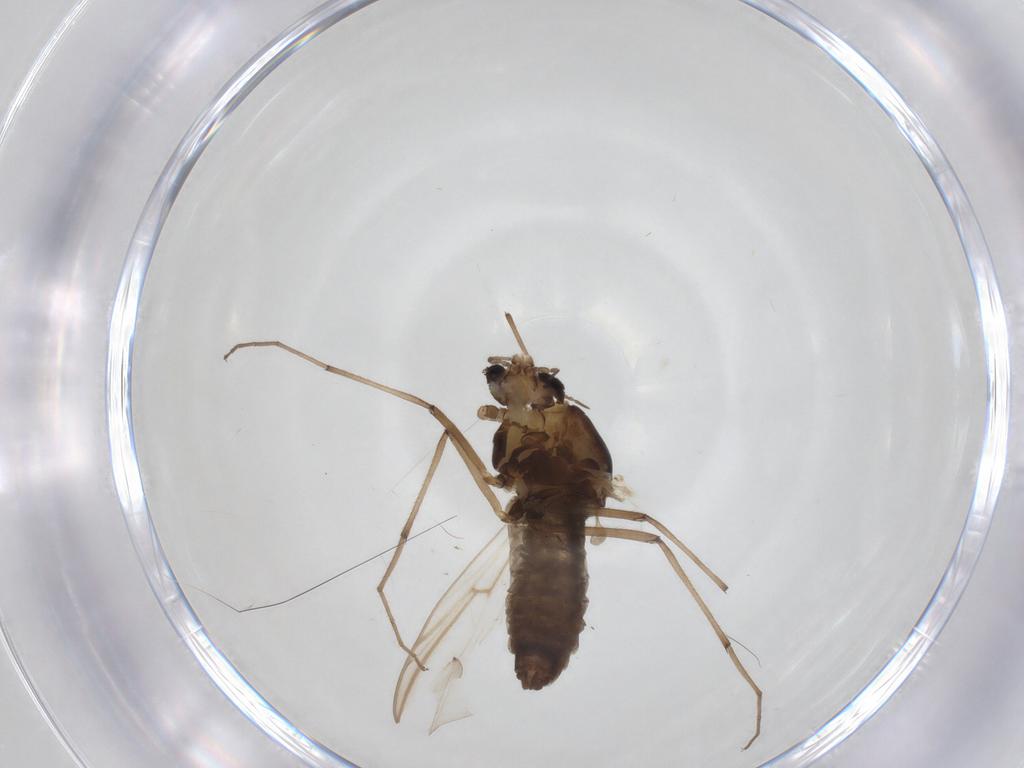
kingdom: Animalia
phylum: Arthropoda
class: Insecta
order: Diptera
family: Chironomidae
